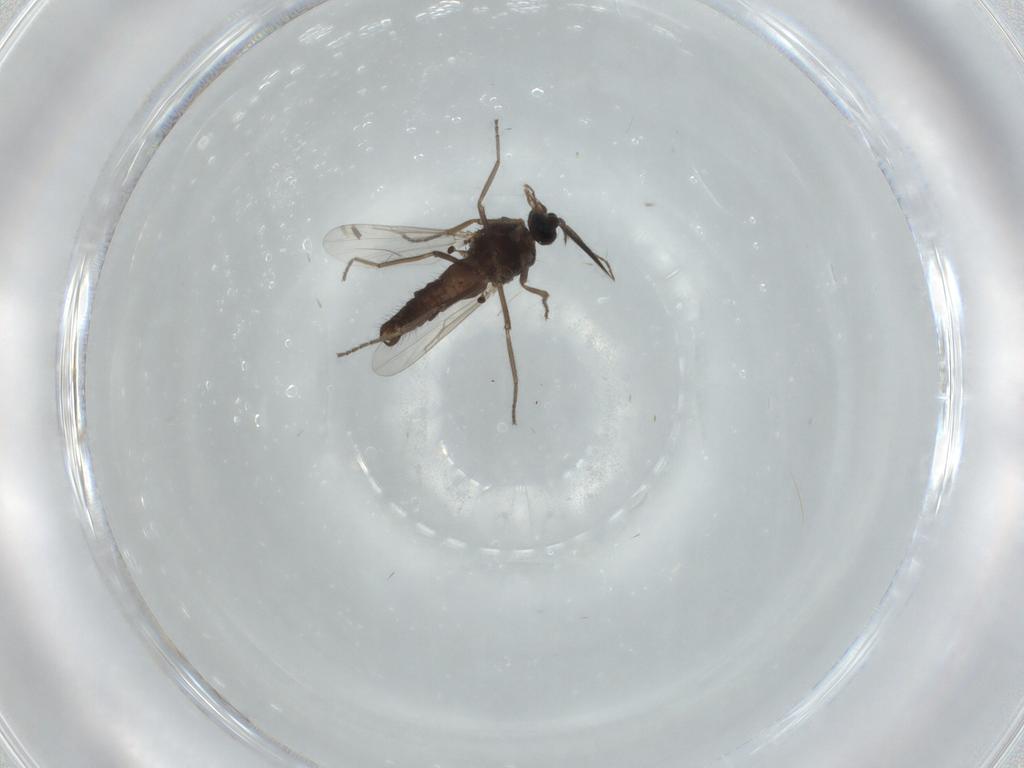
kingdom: Animalia
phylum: Arthropoda
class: Insecta
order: Diptera
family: Ceratopogonidae
